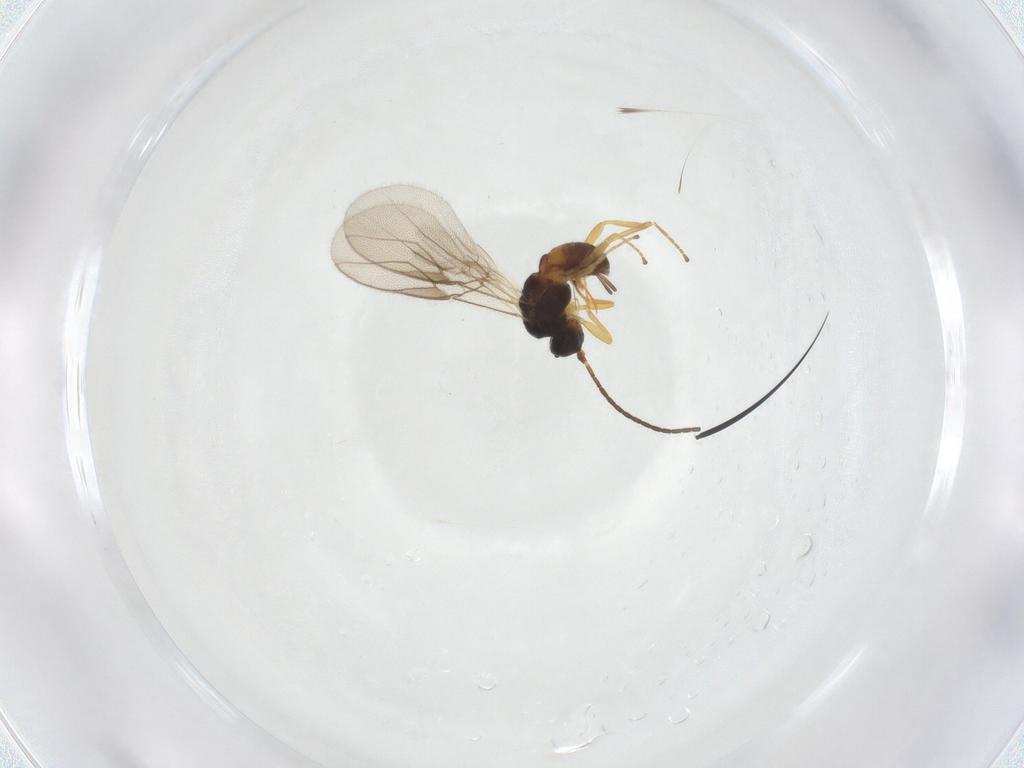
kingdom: Animalia
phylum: Arthropoda
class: Insecta
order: Hymenoptera
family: Braconidae
